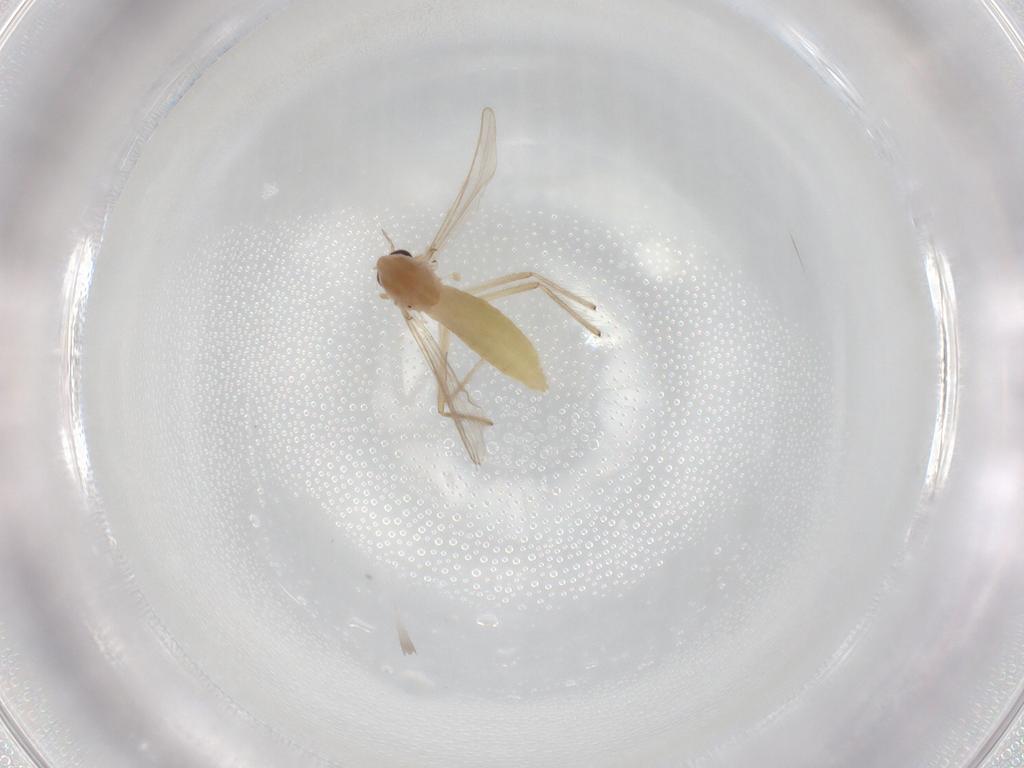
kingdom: Animalia
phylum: Arthropoda
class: Insecta
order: Diptera
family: Chironomidae
